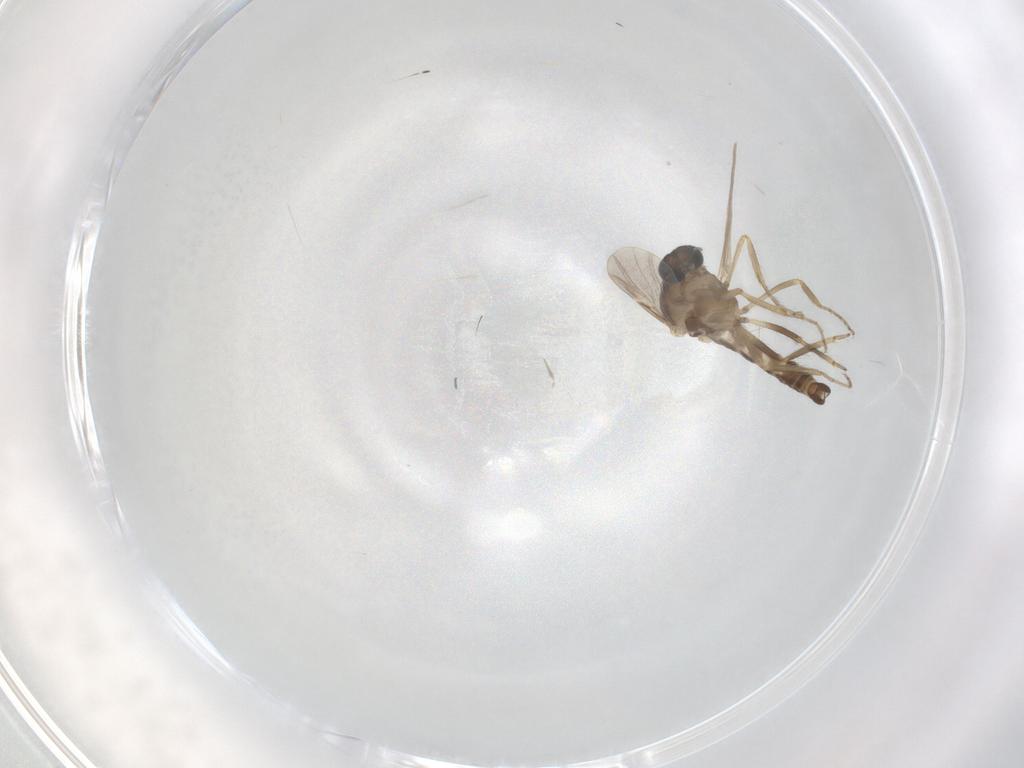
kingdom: Animalia
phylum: Arthropoda
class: Insecta
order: Diptera
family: Ceratopogonidae
